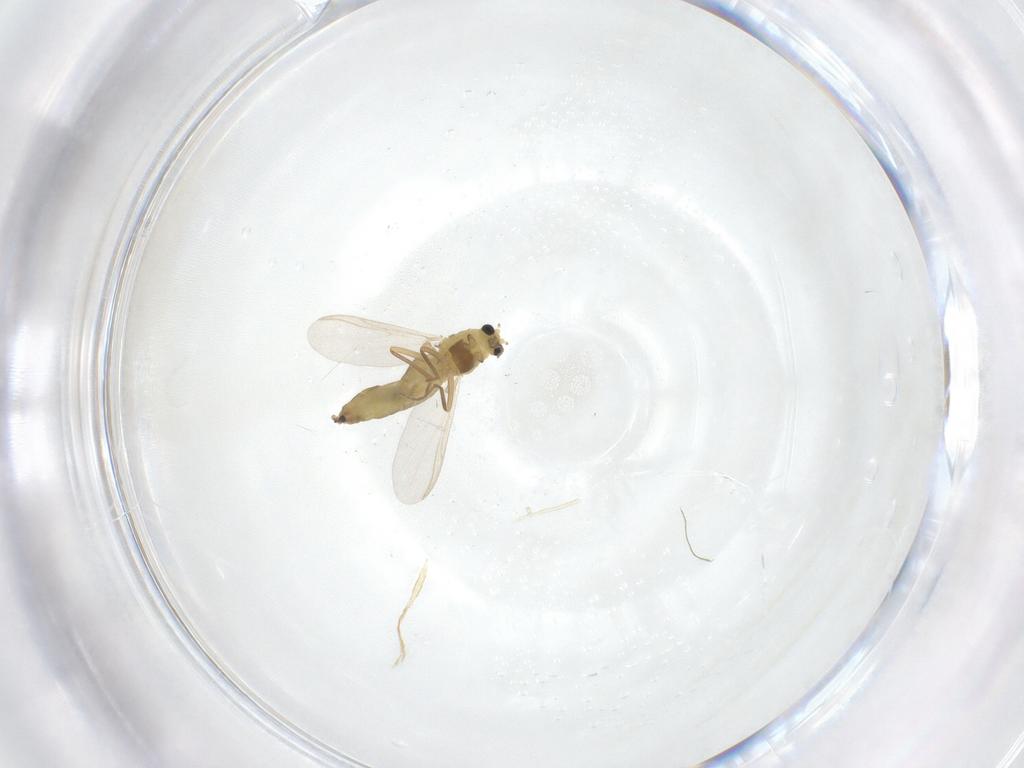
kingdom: Animalia
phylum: Arthropoda
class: Insecta
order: Diptera
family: Chironomidae
